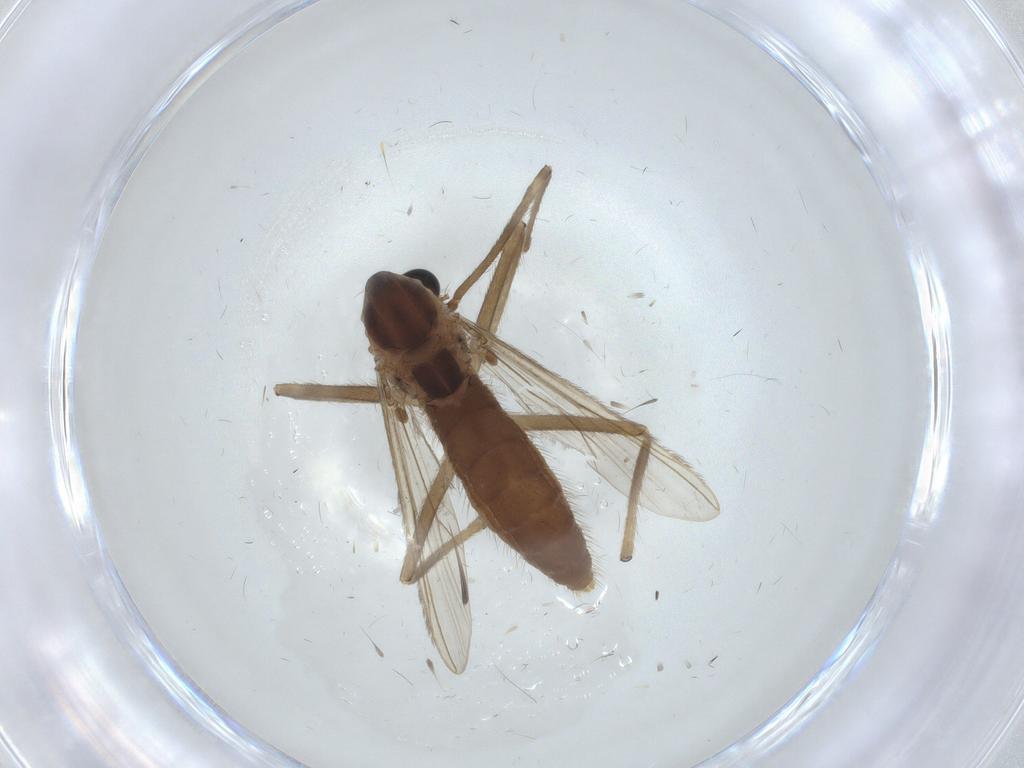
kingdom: Animalia
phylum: Arthropoda
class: Insecta
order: Diptera
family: Chironomidae
